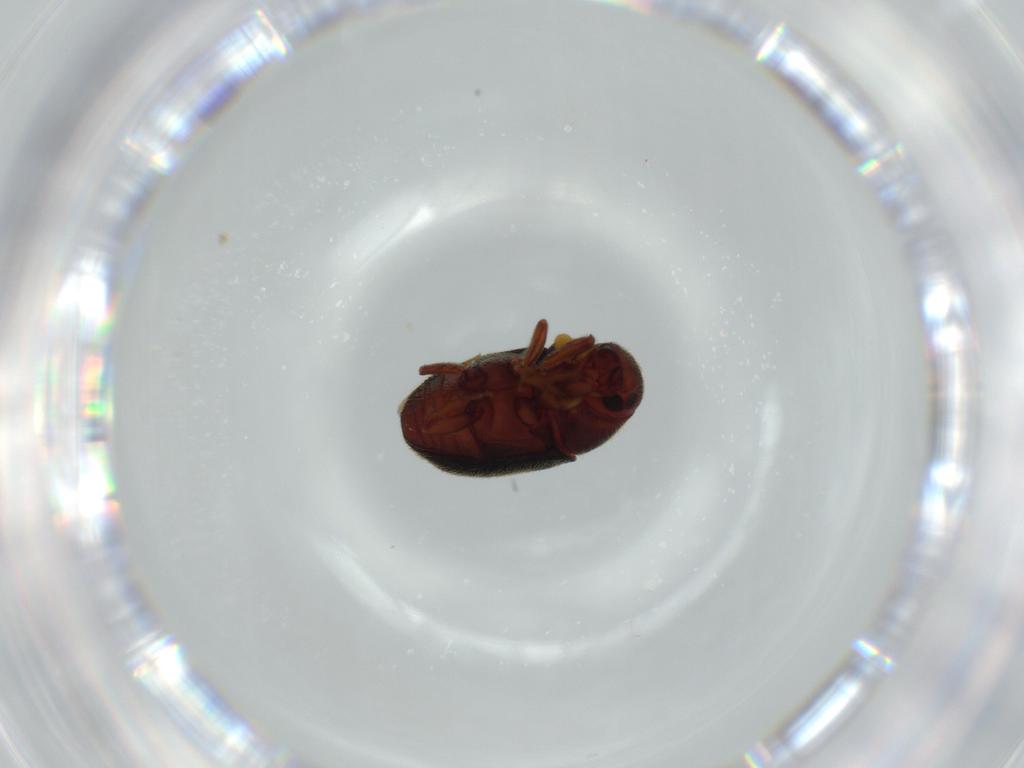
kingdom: Animalia
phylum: Arthropoda
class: Insecta
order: Coleoptera
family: Curculionidae
